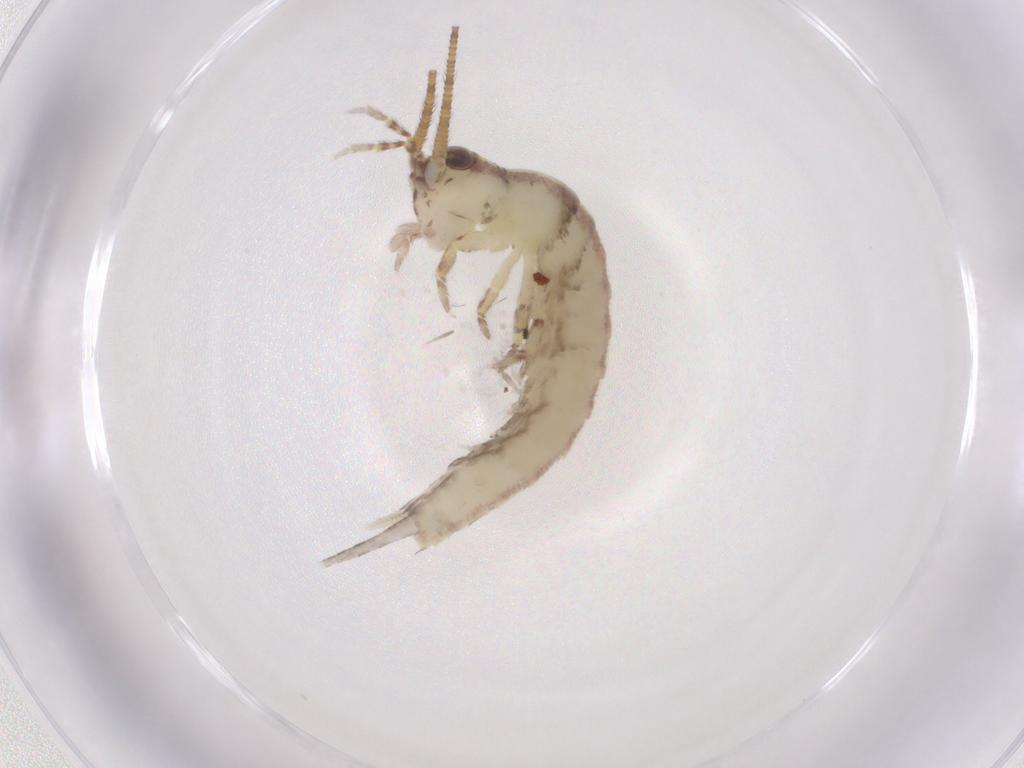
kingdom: Animalia
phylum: Arthropoda
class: Insecta
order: Archaeognatha
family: Machilidae
